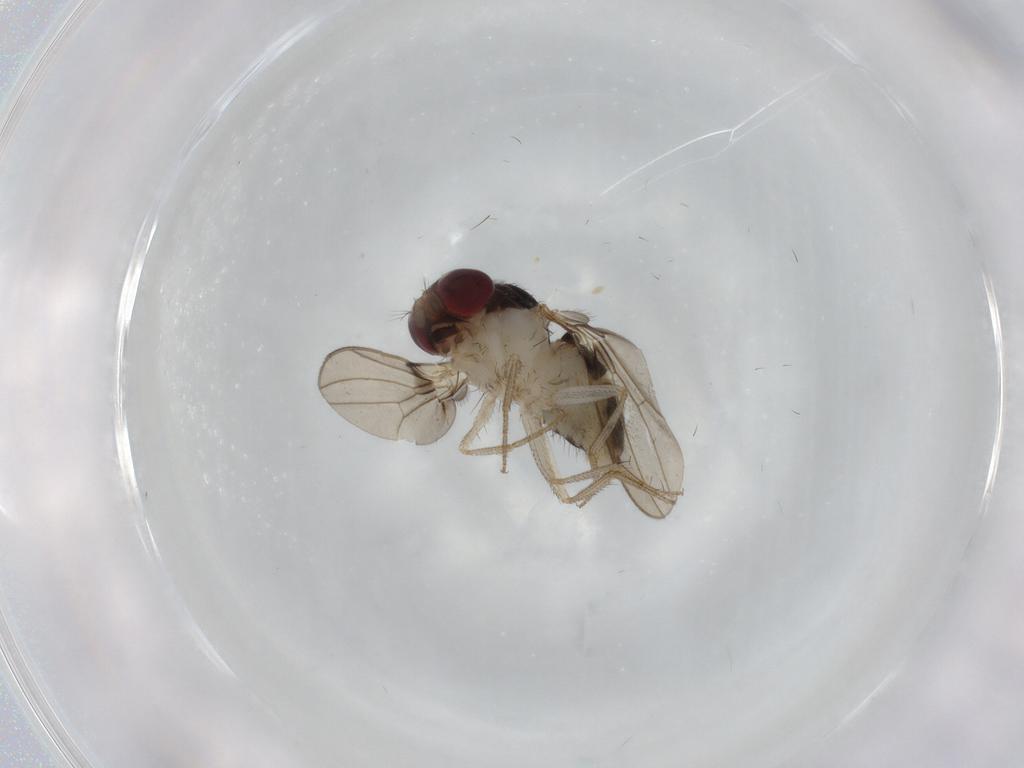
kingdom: Animalia
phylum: Arthropoda
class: Insecta
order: Diptera
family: Drosophilidae
